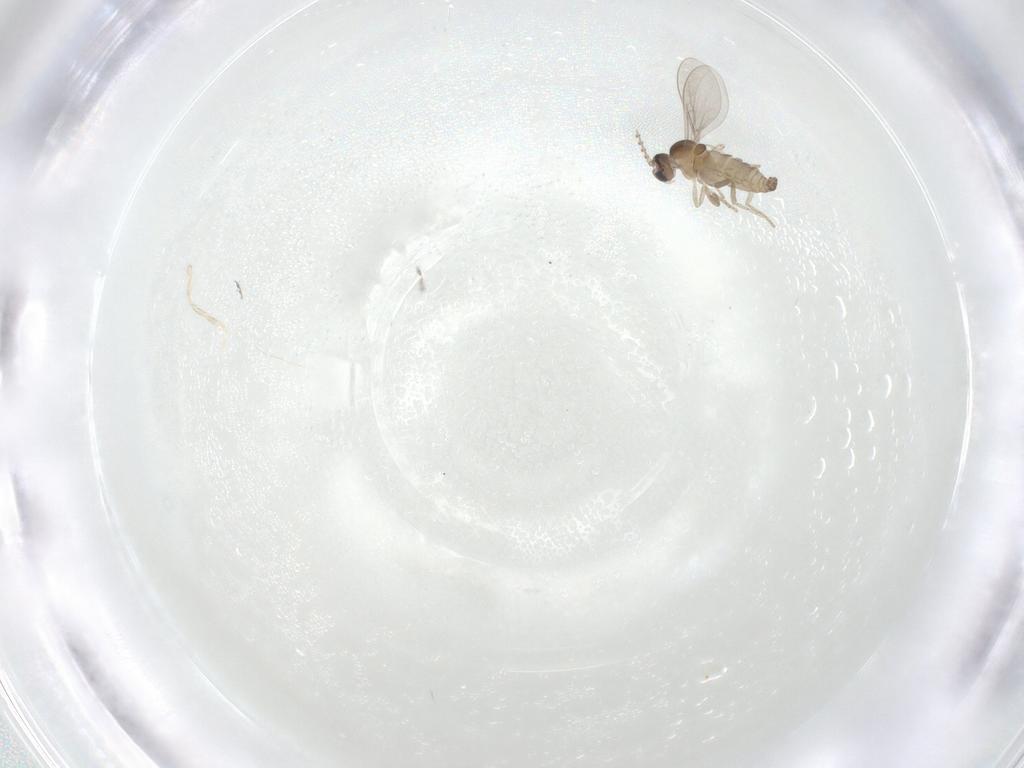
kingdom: Animalia
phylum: Arthropoda
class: Insecta
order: Diptera
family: Cecidomyiidae
